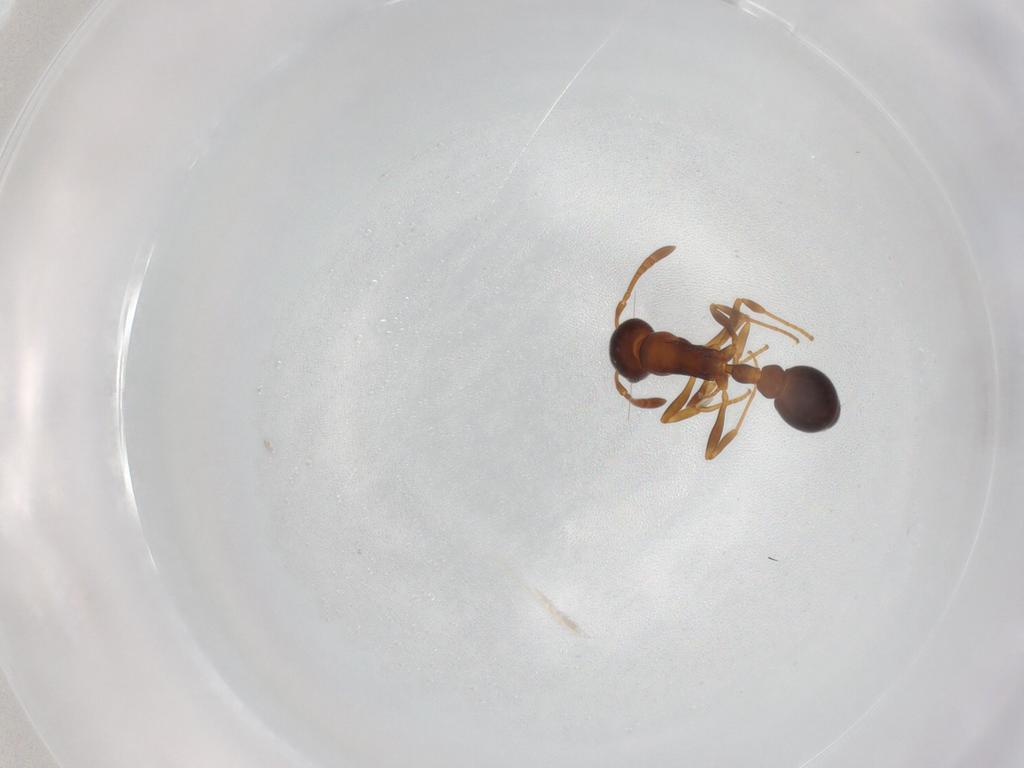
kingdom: Animalia
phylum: Arthropoda
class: Insecta
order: Hymenoptera
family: Formicidae
